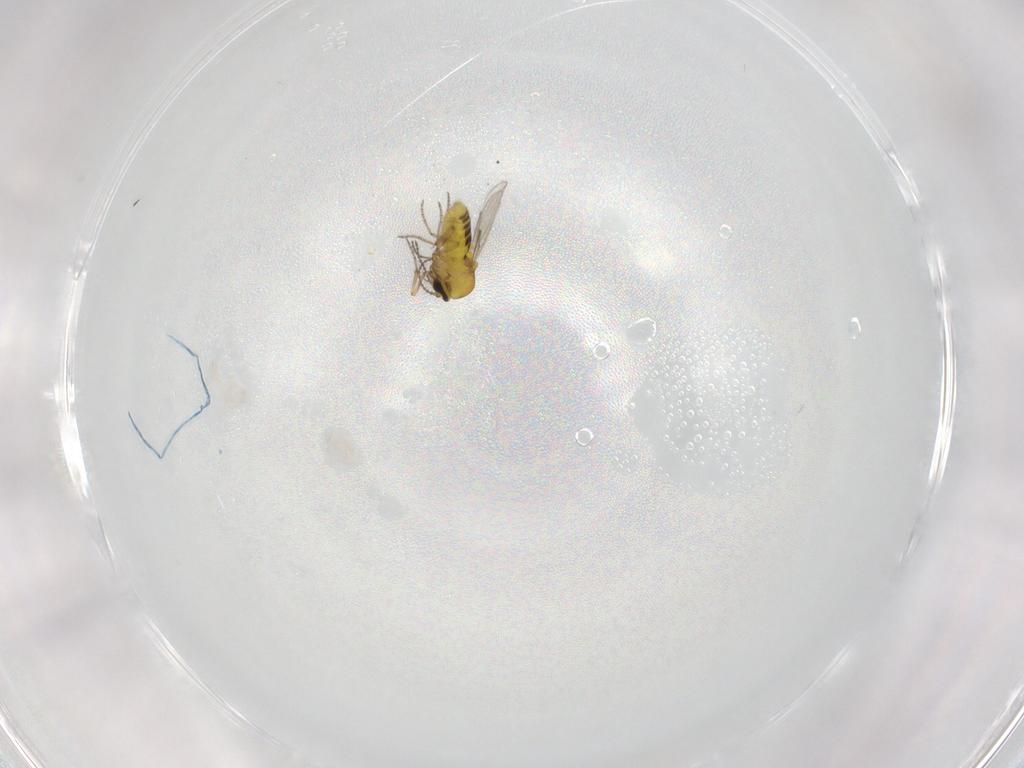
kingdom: Animalia
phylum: Arthropoda
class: Insecta
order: Diptera
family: Ceratopogonidae
